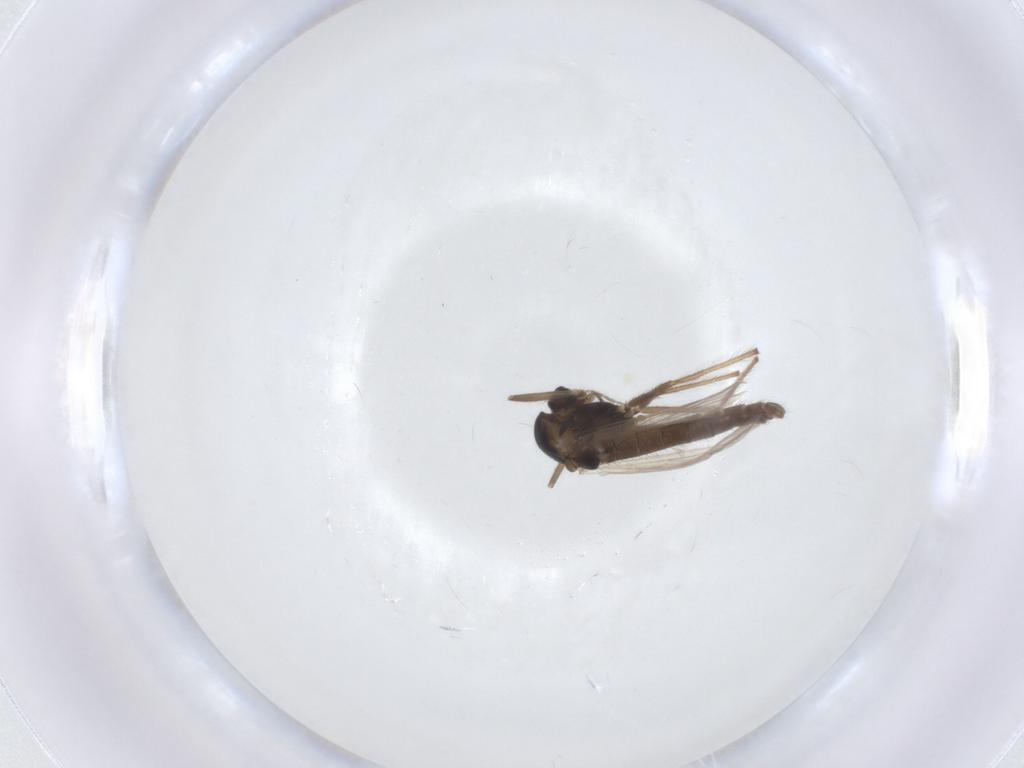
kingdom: Animalia
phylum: Arthropoda
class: Insecta
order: Diptera
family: Chironomidae
